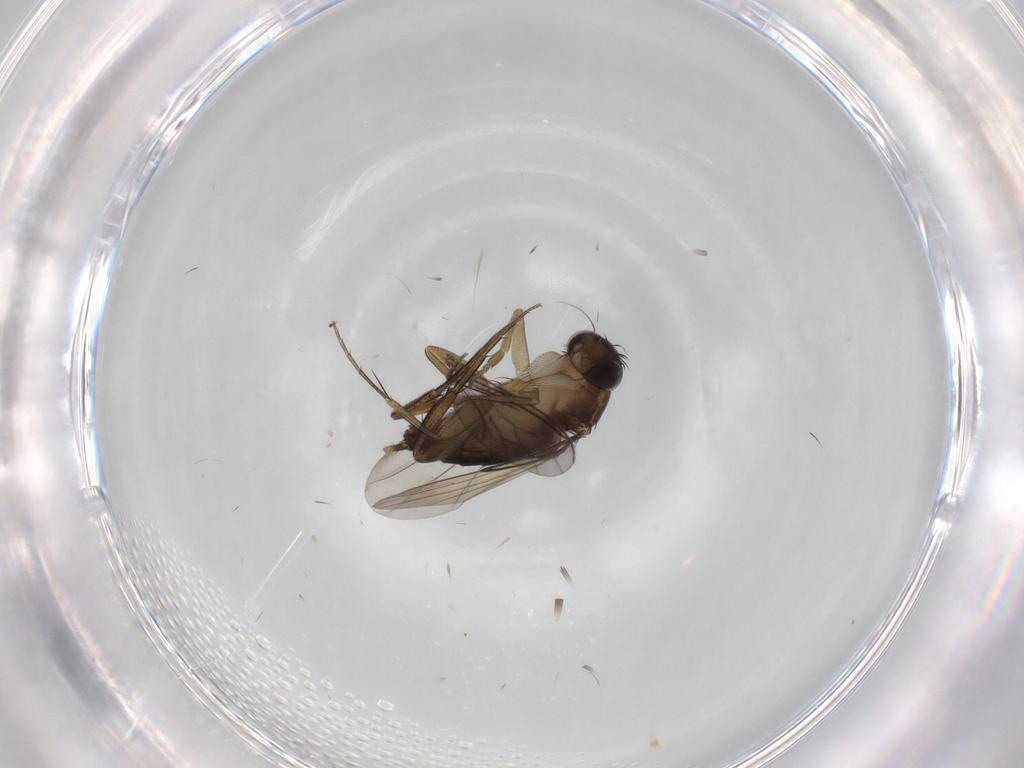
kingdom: Animalia
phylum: Arthropoda
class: Insecta
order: Diptera
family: Phoridae
